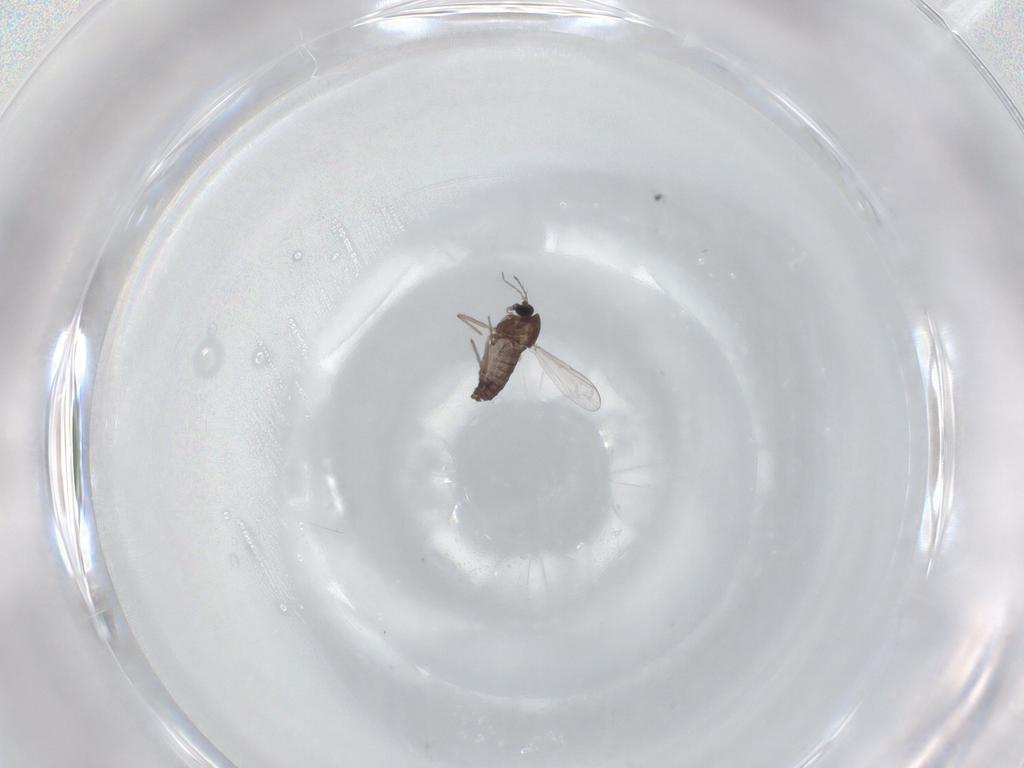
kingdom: Animalia
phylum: Arthropoda
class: Insecta
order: Diptera
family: Chironomidae
